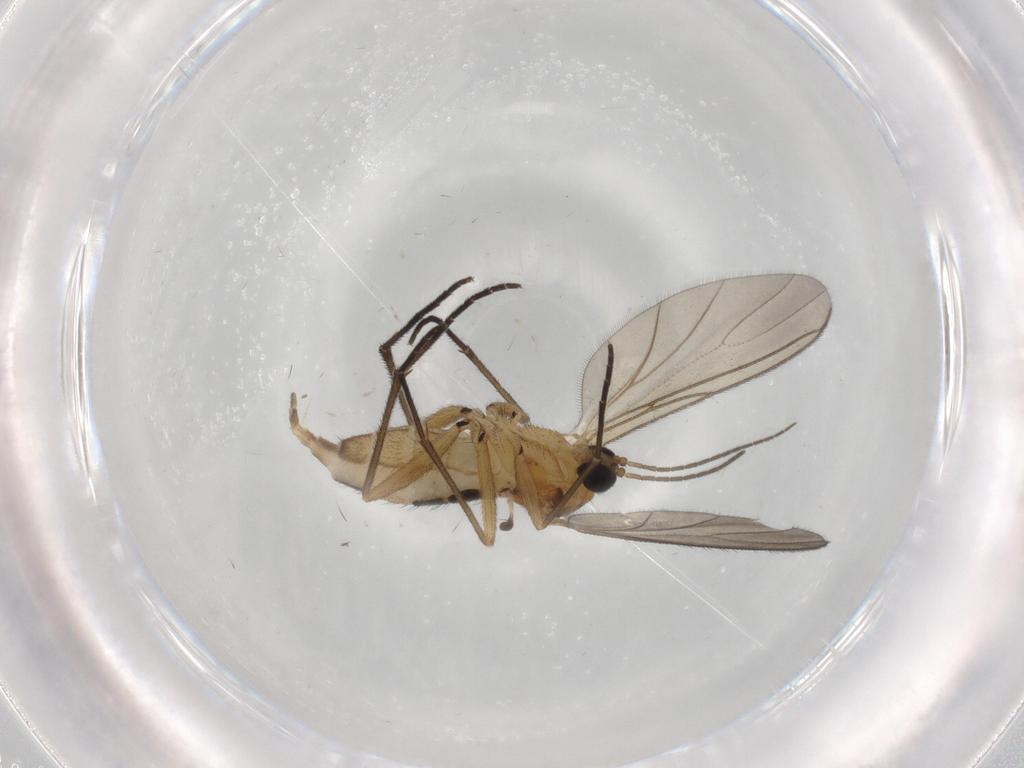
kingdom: Animalia
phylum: Arthropoda
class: Insecta
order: Diptera
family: Sciaridae
